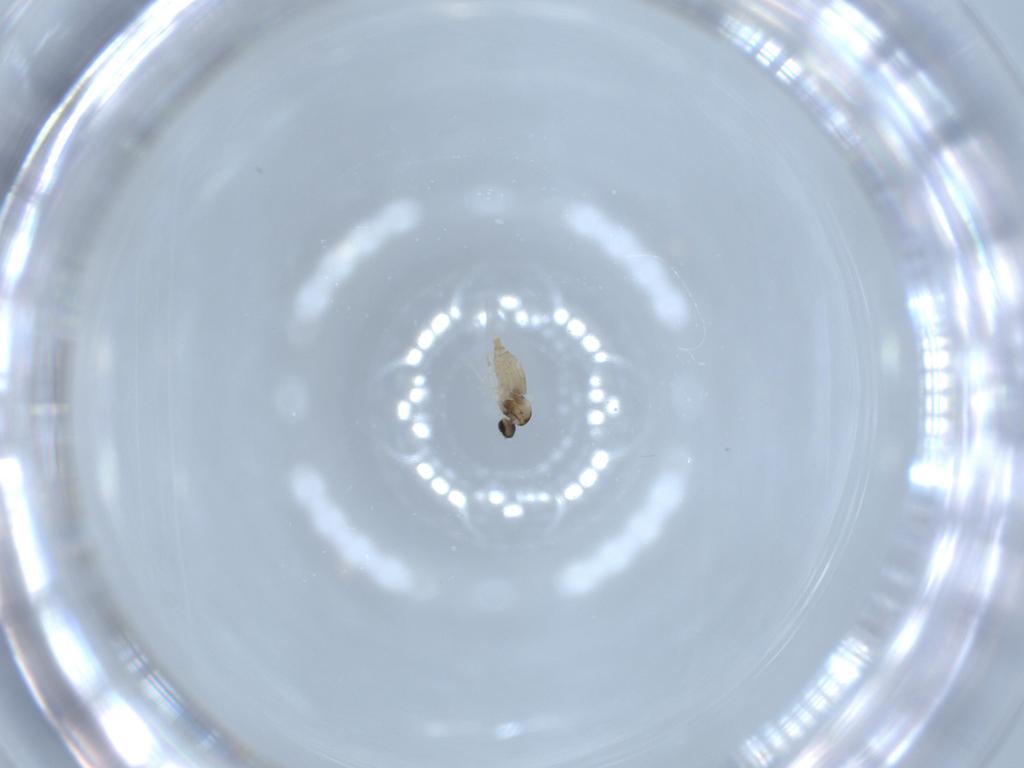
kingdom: Animalia
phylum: Arthropoda
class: Insecta
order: Diptera
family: Cecidomyiidae
